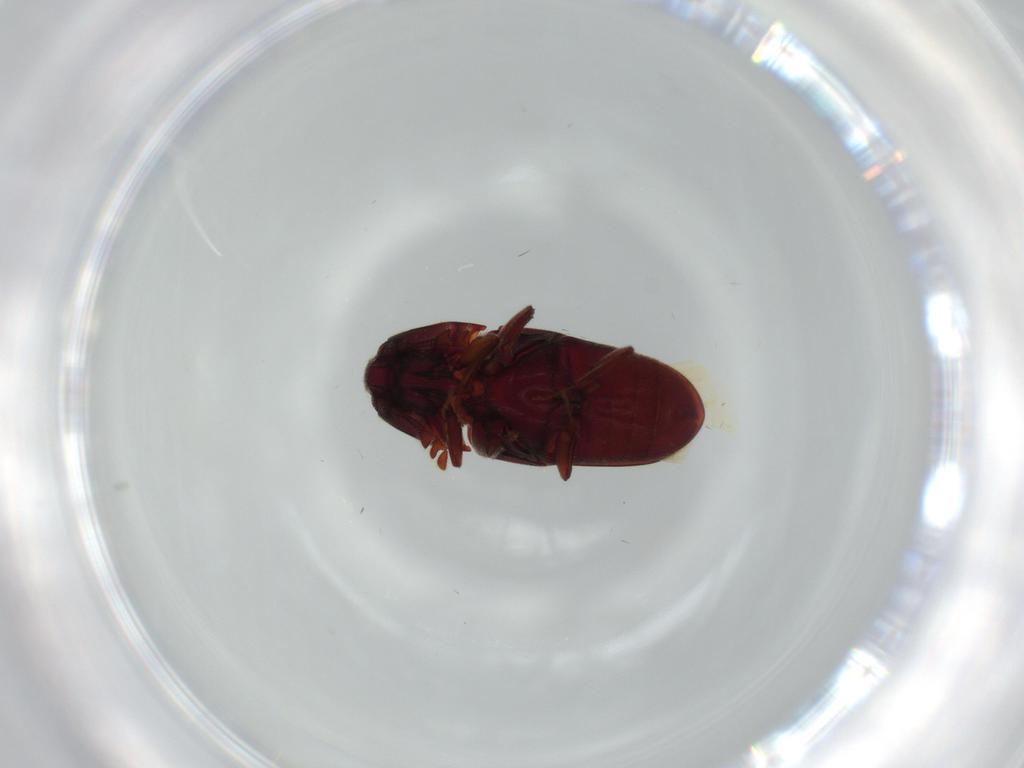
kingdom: Animalia
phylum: Arthropoda
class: Insecta
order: Coleoptera
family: Throscidae
